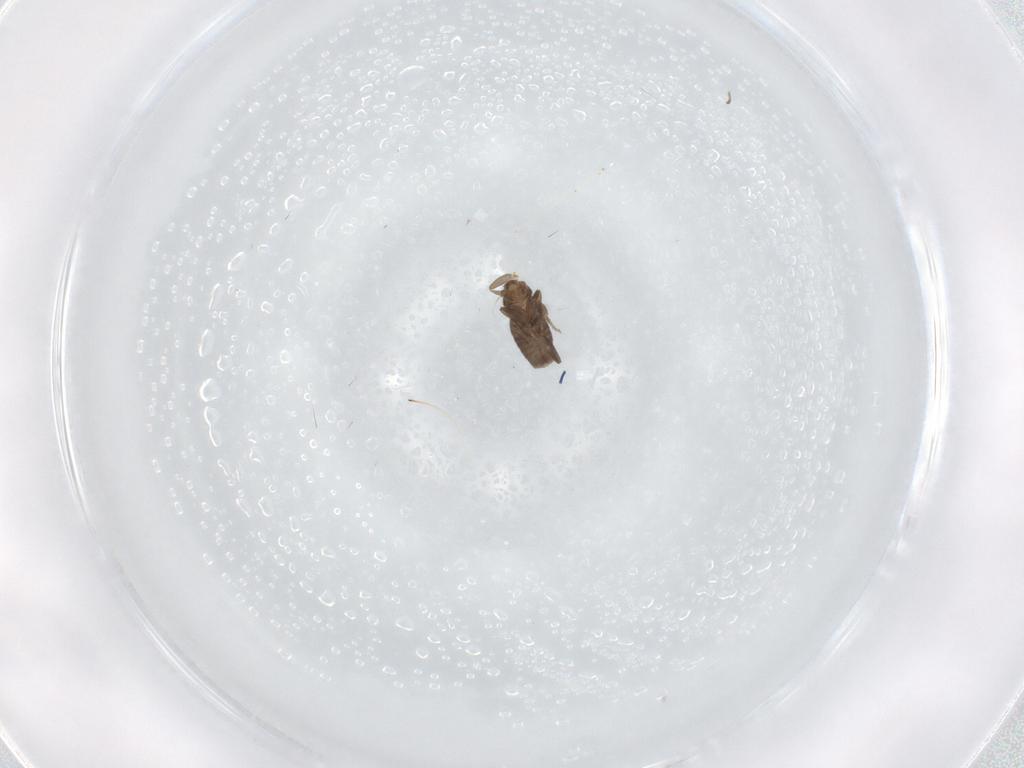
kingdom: Animalia
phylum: Arthropoda
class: Insecta
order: Diptera
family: Phoridae
